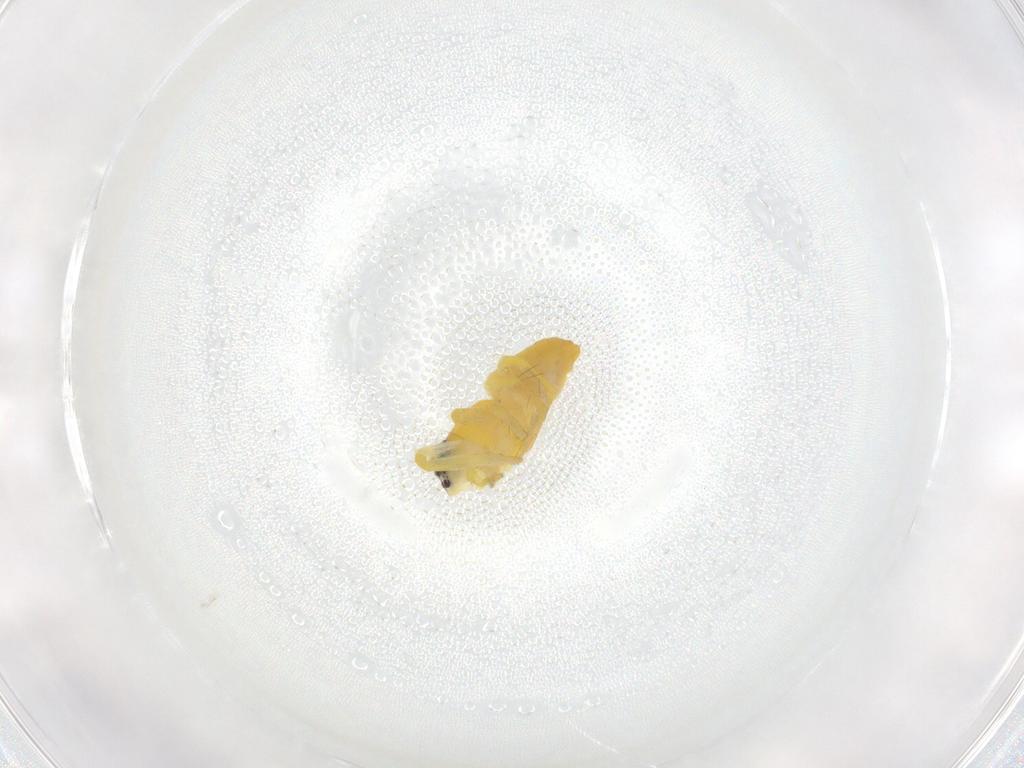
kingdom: Animalia
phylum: Arthropoda
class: Arachnida
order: Araneae
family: Oxyopidae
